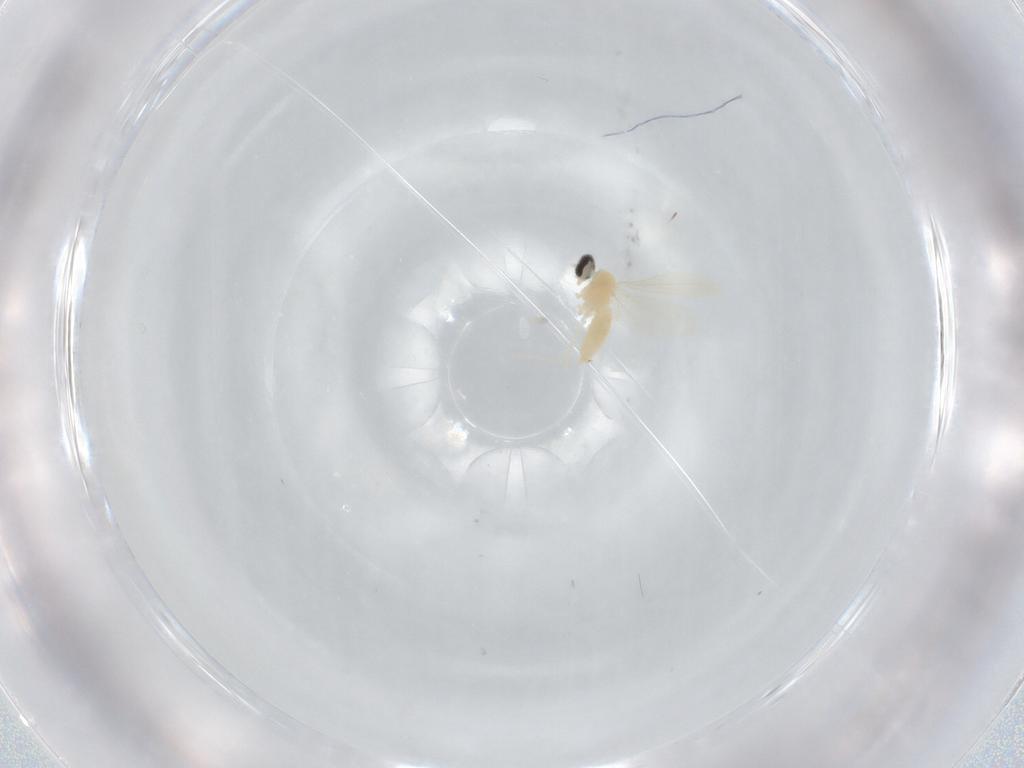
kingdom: Animalia
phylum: Arthropoda
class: Insecta
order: Diptera
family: Cecidomyiidae
